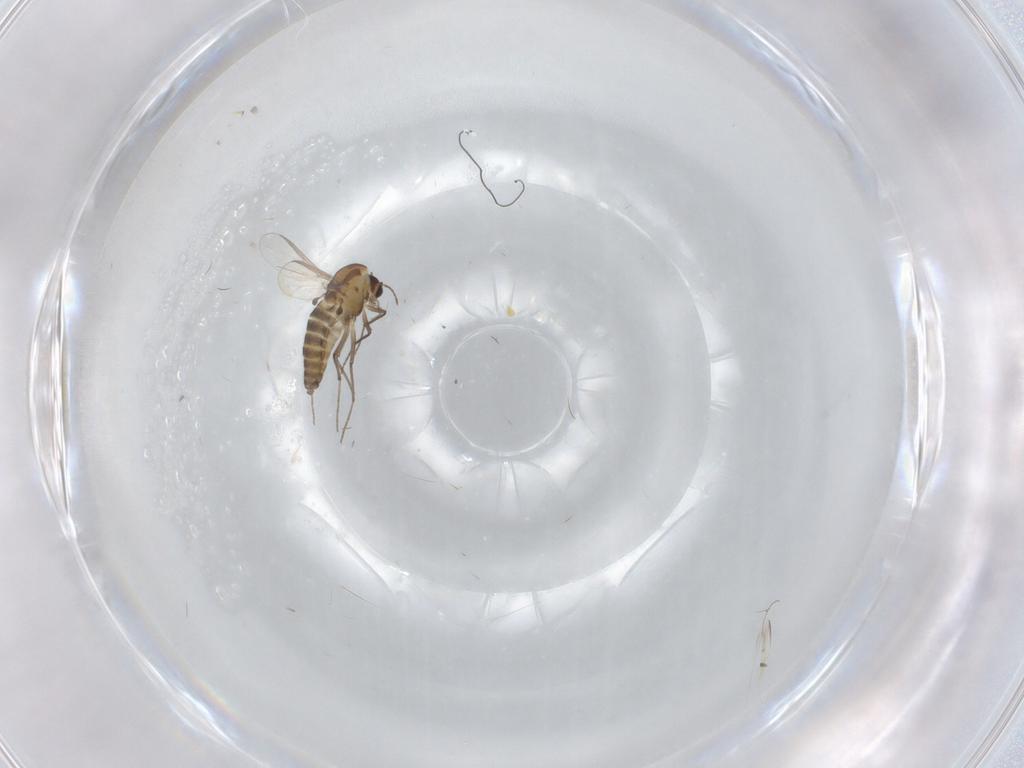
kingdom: Animalia
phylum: Arthropoda
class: Insecta
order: Diptera
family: Chironomidae
